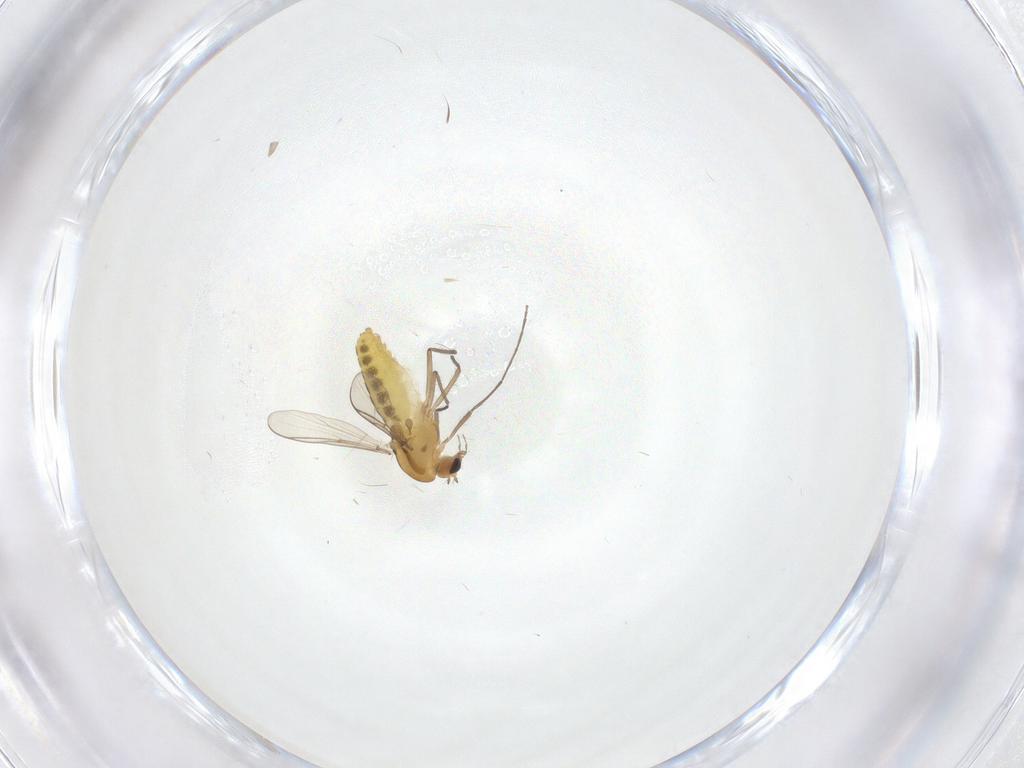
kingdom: Animalia
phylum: Arthropoda
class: Insecta
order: Diptera
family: Chironomidae
